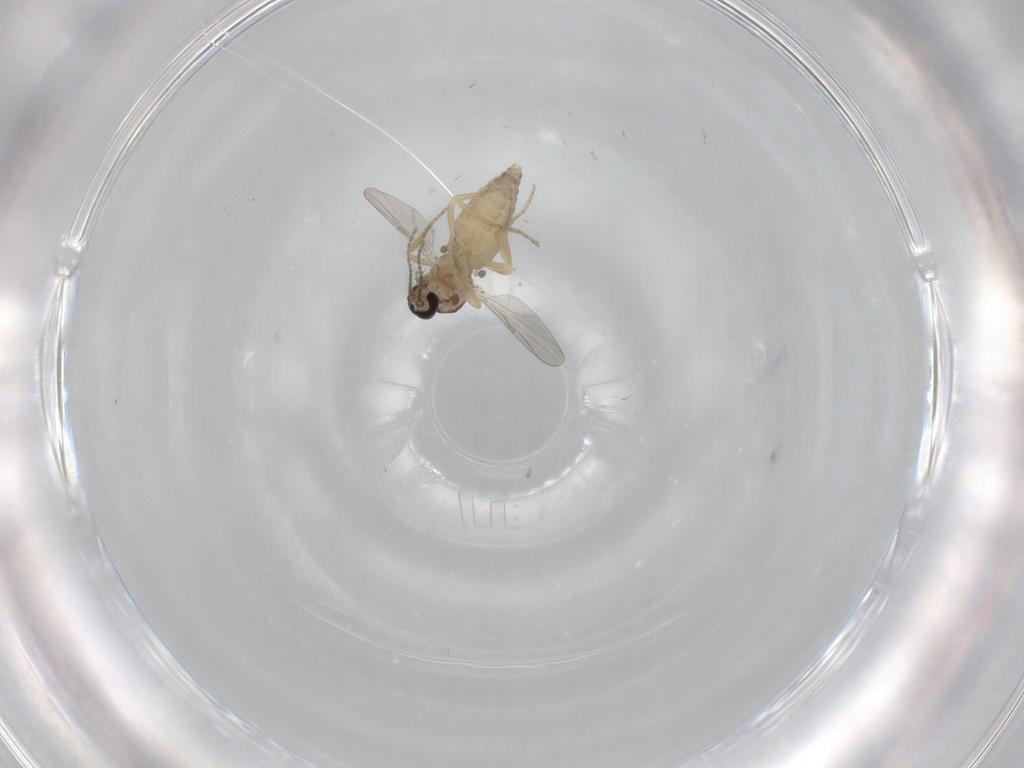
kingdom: Animalia
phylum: Arthropoda
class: Insecta
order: Diptera
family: Ceratopogonidae
